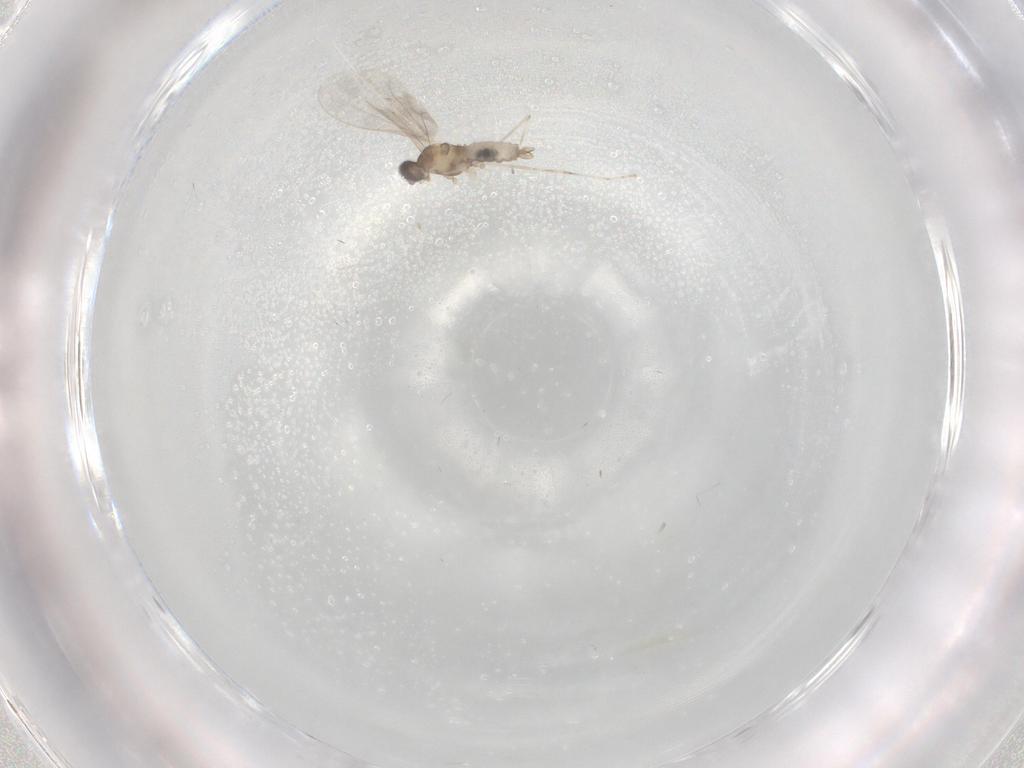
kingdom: Animalia
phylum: Arthropoda
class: Insecta
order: Diptera
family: Cecidomyiidae
